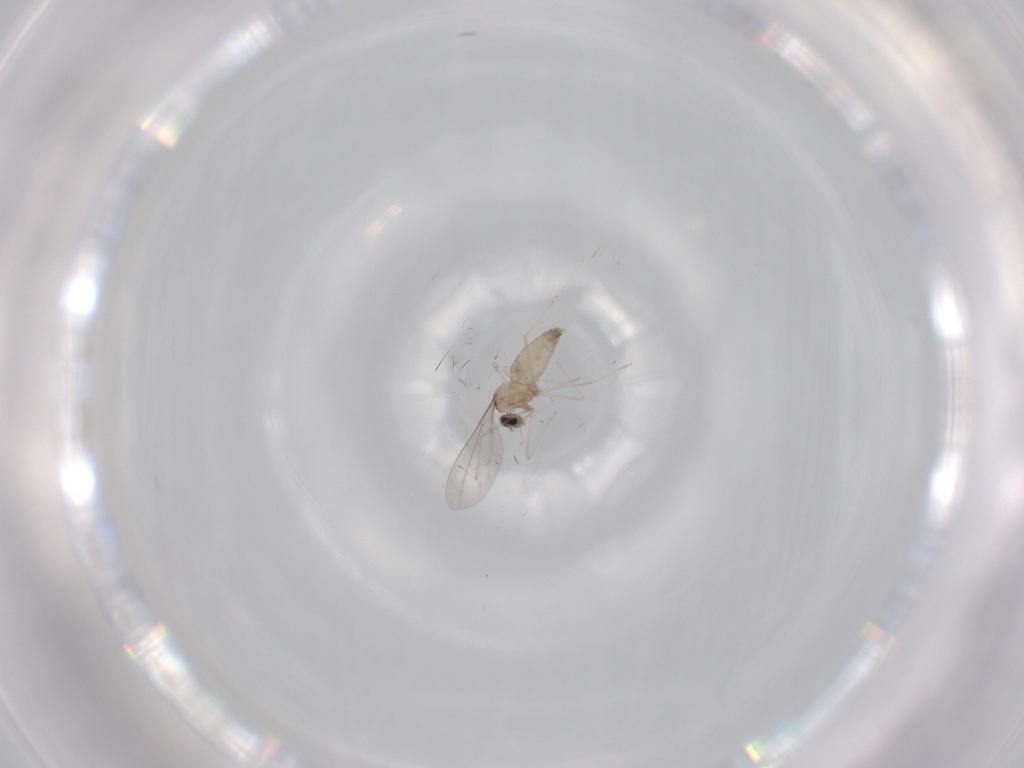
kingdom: Animalia
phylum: Arthropoda
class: Insecta
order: Diptera
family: Cecidomyiidae
